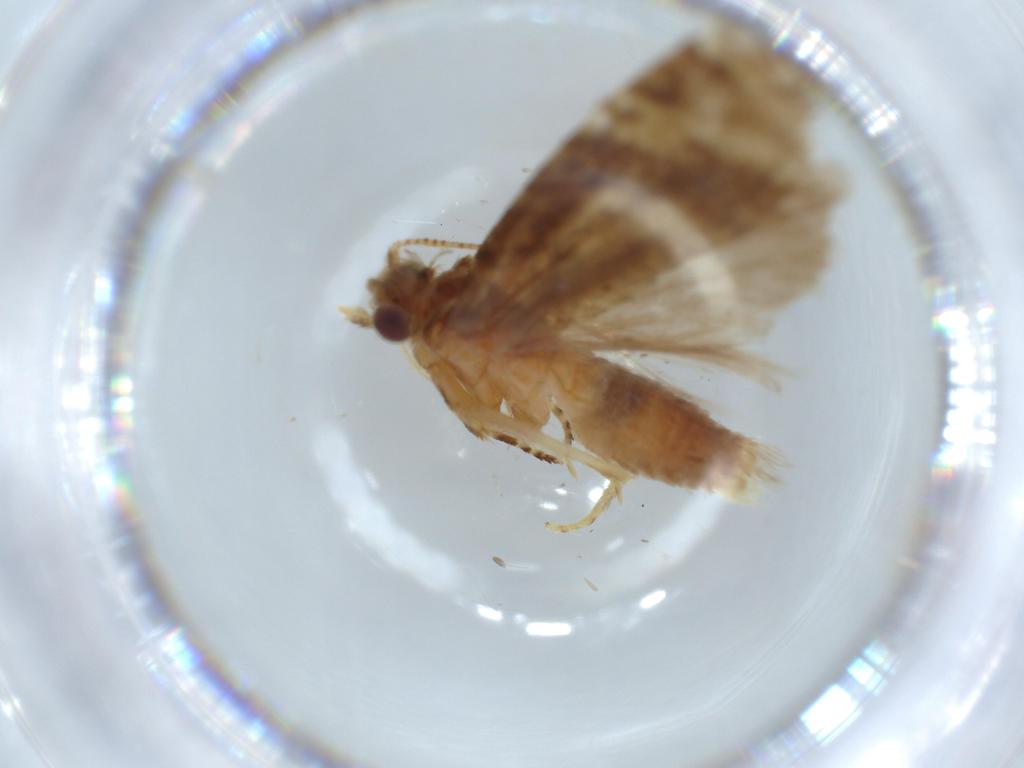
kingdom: Animalia
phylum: Arthropoda
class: Insecta
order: Lepidoptera
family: Tortricidae
